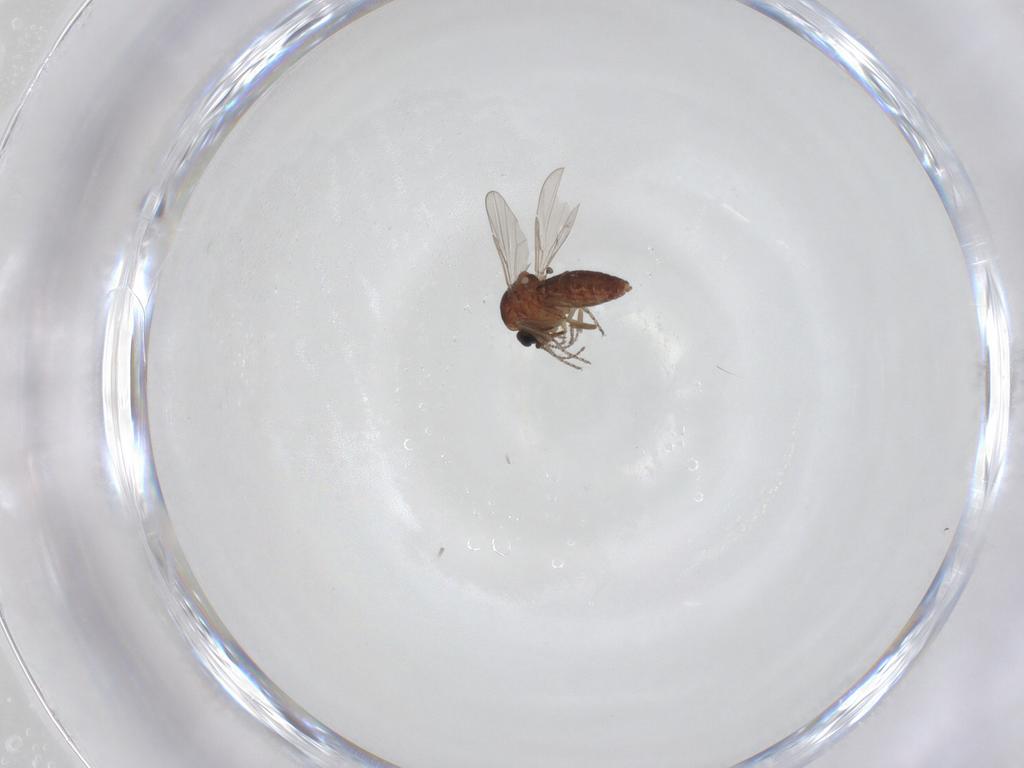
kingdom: Animalia
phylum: Arthropoda
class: Insecta
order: Diptera
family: Ceratopogonidae
